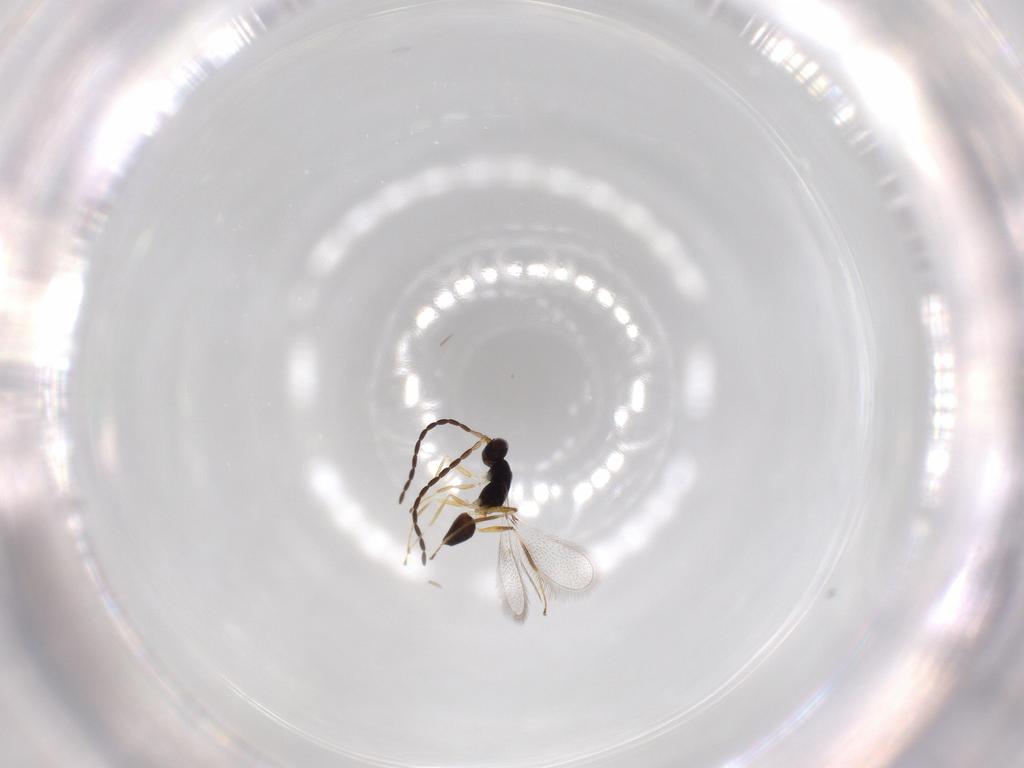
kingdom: Animalia
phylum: Arthropoda
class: Insecta
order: Hymenoptera
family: Formicidae
